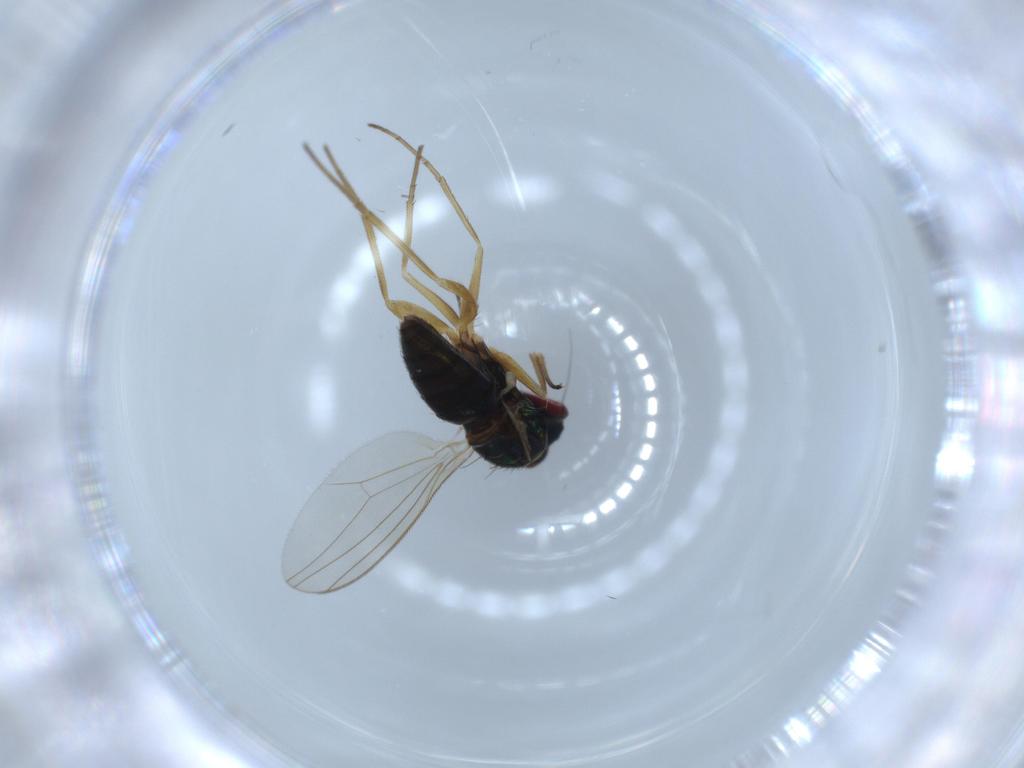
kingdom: Animalia
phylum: Arthropoda
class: Insecta
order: Diptera
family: Dolichopodidae
